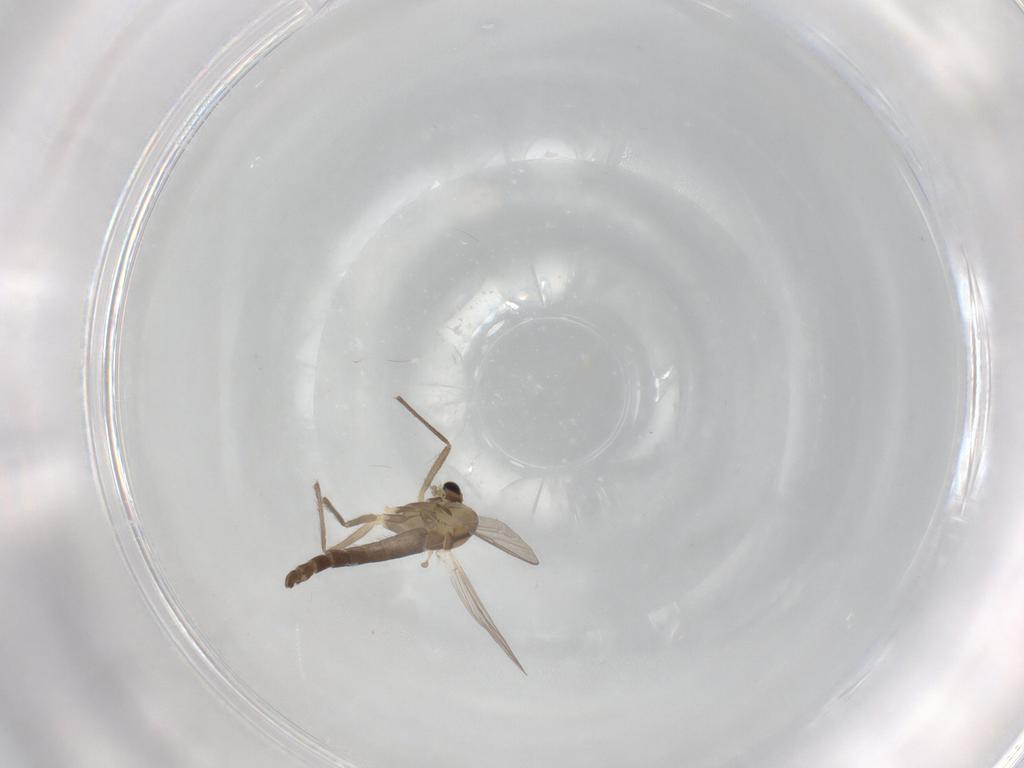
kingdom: Animalia
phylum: Arthropoda
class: Insecta
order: Diptera
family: Chironomidae
